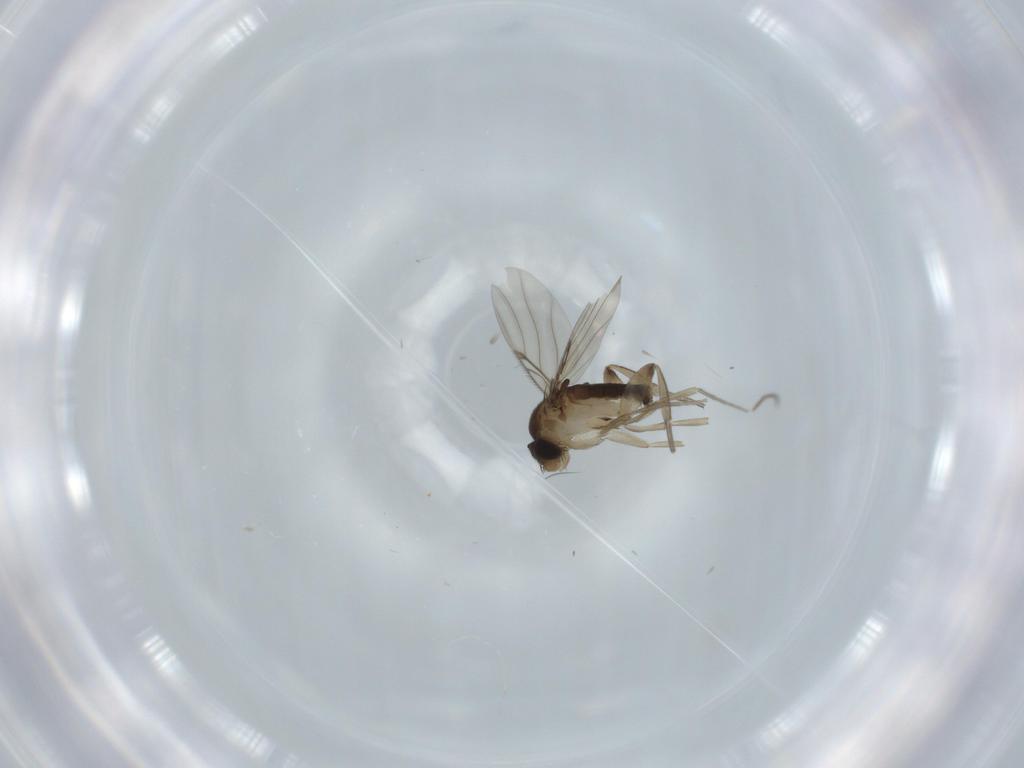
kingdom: Animalia
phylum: Arthropoda
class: Insecta
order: Diptera
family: Phoridae
